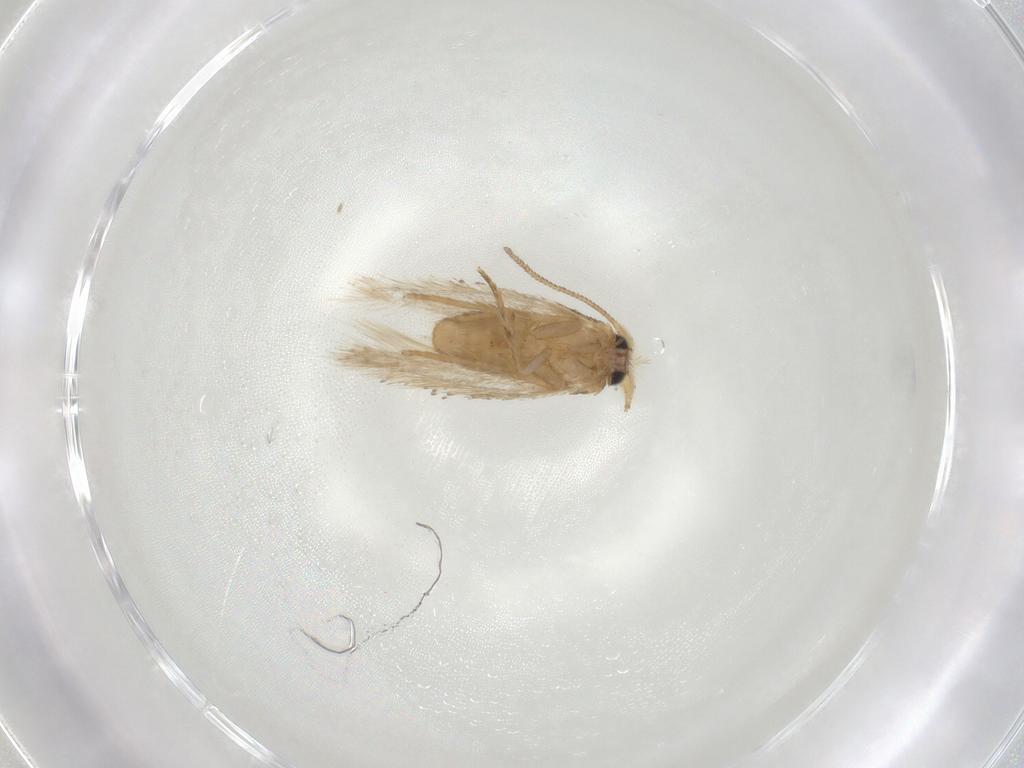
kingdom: Animalia
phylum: Arthropoda
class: Insecta
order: Lepidoptera
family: Nepticulidae
